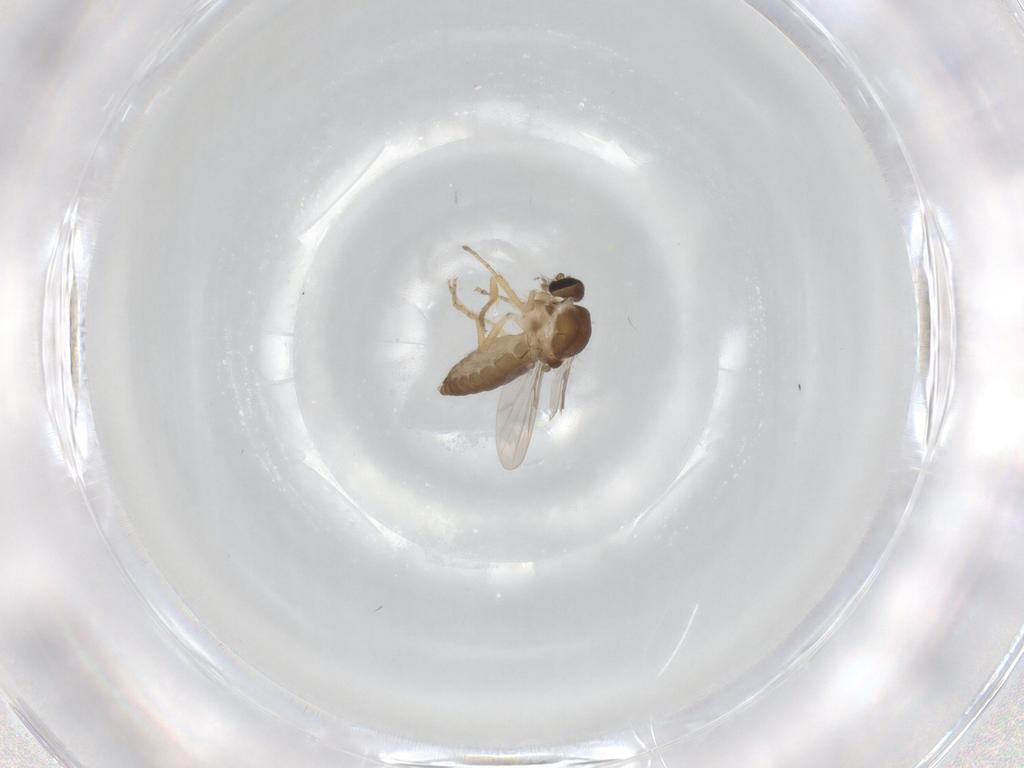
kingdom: Animalia
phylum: Arthropoda
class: Insecta
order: Diptera
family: Ceratopogonidae
